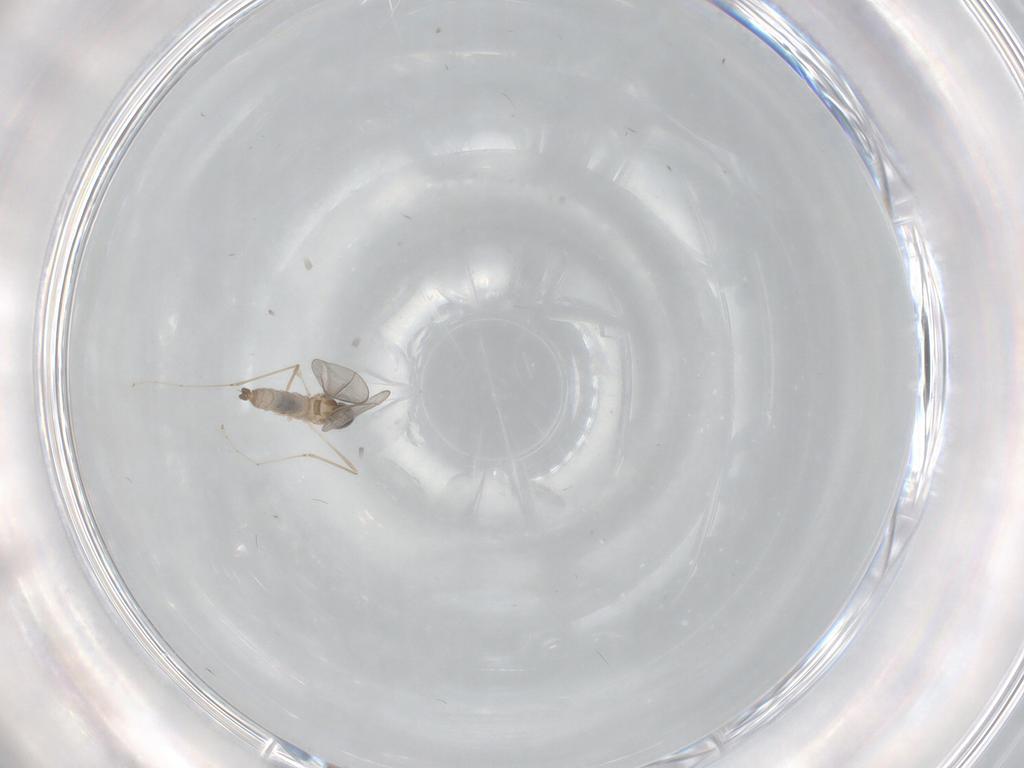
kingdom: Animalia
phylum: Arthropoda
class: Insecta
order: Diptera
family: Cecidomyiidae
